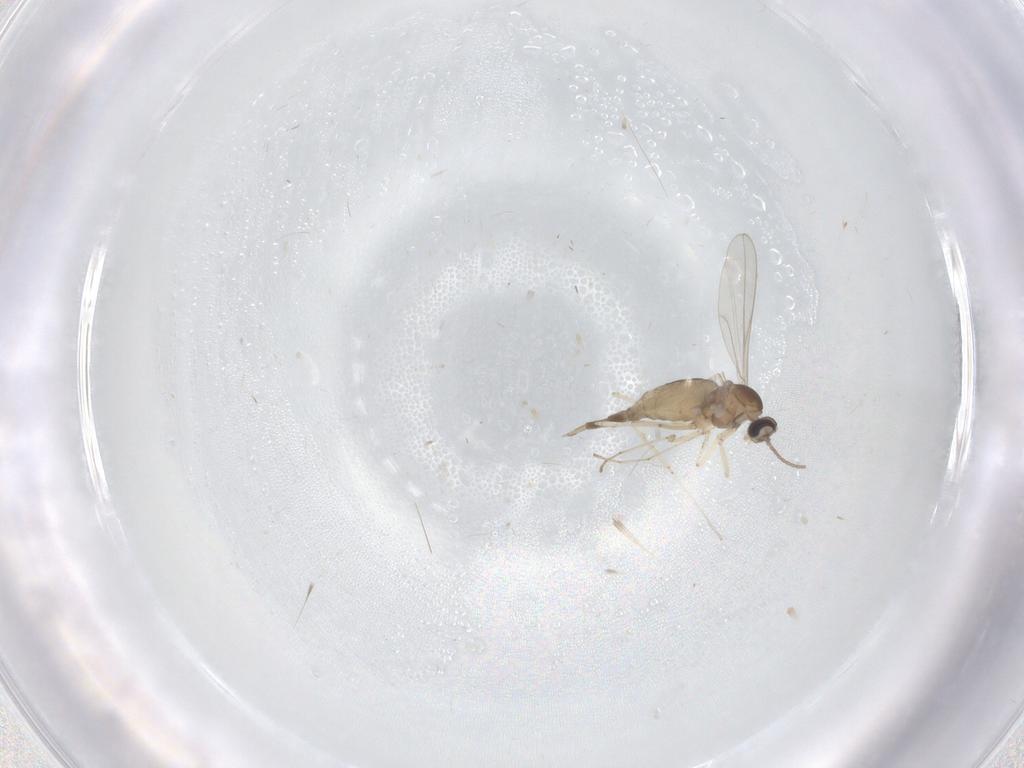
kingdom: Animalia
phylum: Arthropoda
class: Insecta
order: Diptera
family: Cecidomyiidae
